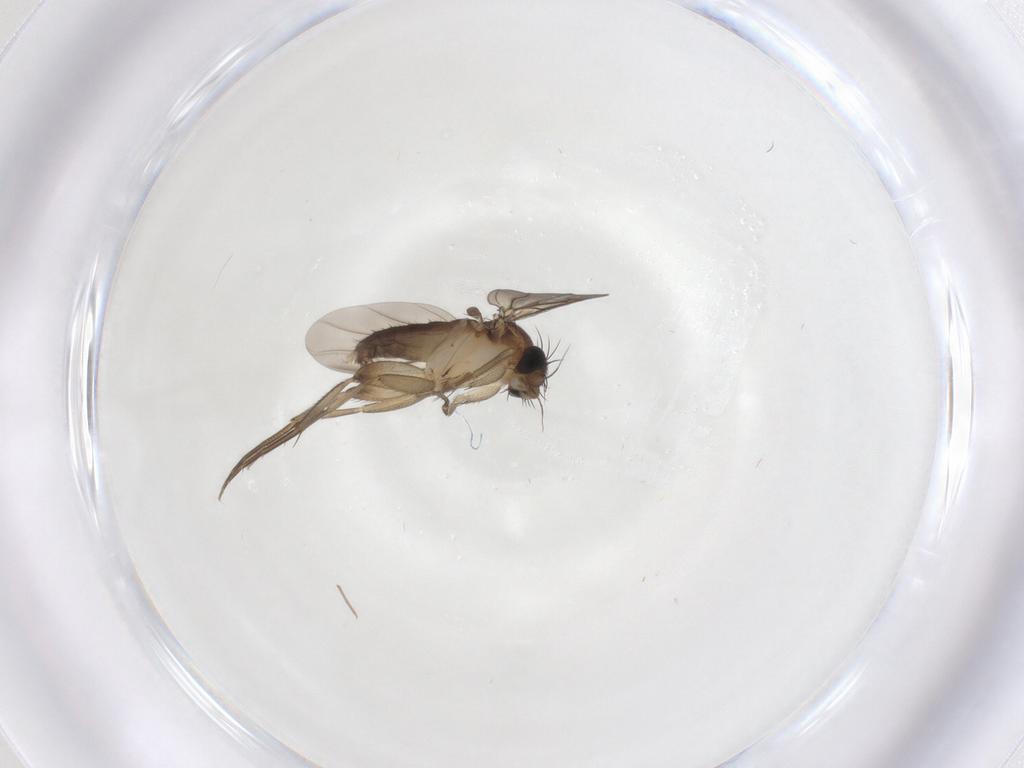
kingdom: Animalia
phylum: Arthropoda
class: Insecta
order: Diptera
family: Phoridae
